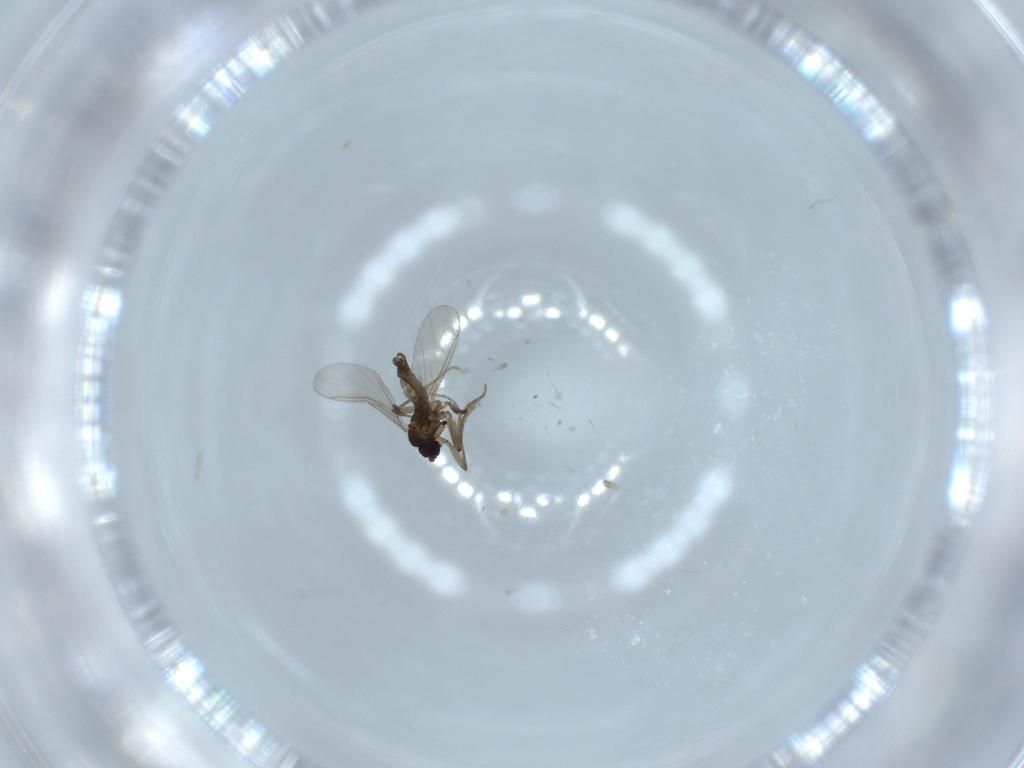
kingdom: Animalia
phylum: Arthropoda
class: Insecta
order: Diptera
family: Sciaridae
